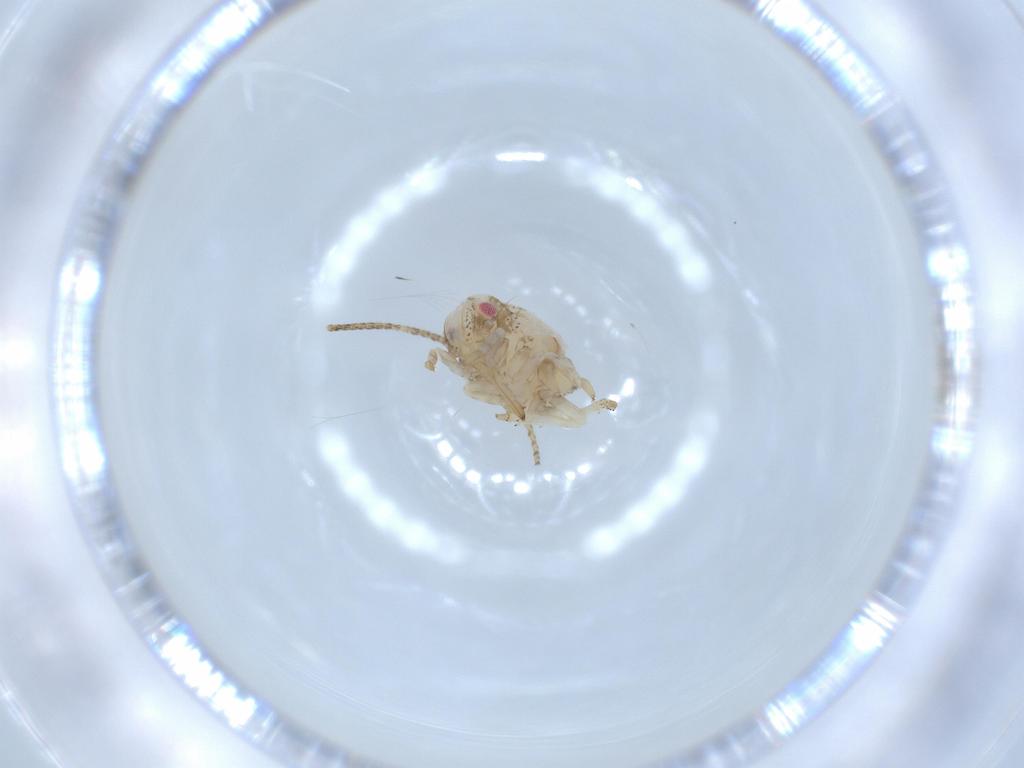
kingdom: Animalia
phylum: Arthropoda
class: Insecta
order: Hemiptera
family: Acanaloniidae
